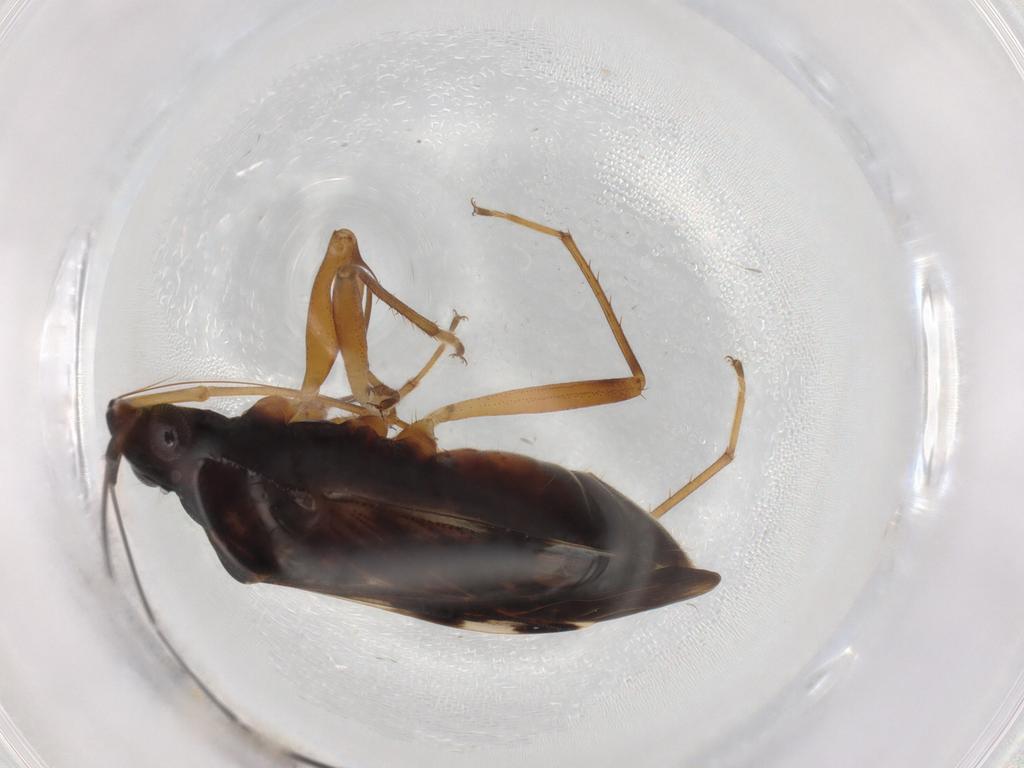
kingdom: Animalia
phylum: Arthropoda
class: Insecta
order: Hemiptera
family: Rhyparochromidae
